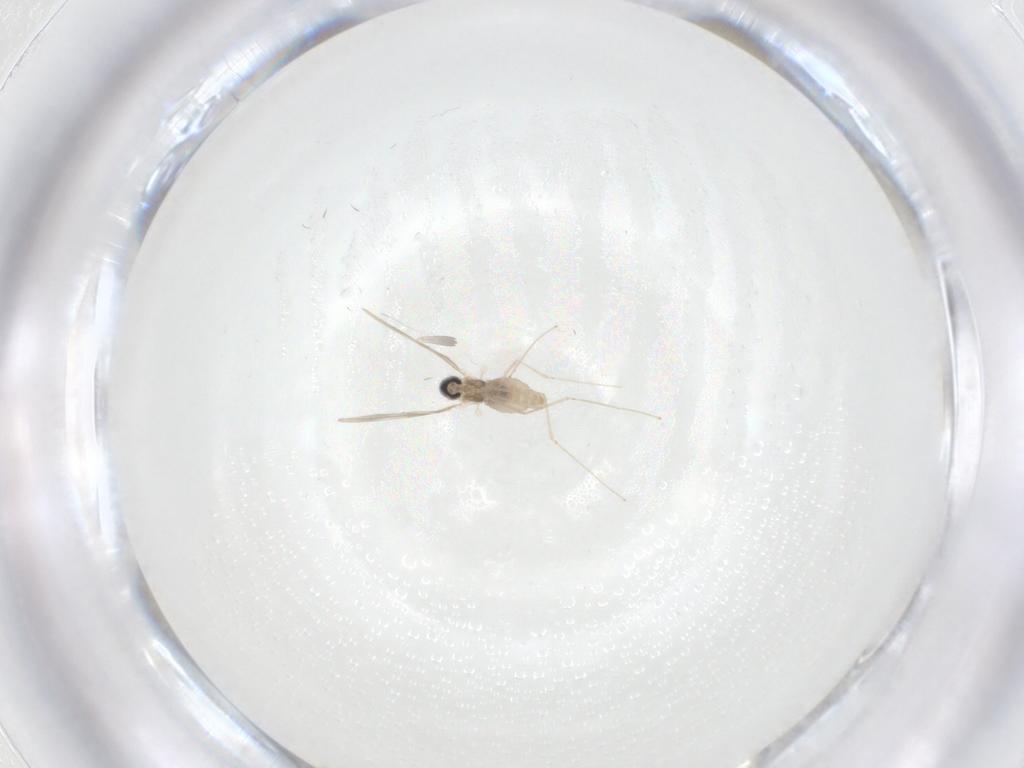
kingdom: Animalia
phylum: Arthropoda
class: Insecta
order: Diptera
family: Cecidomyiidae
